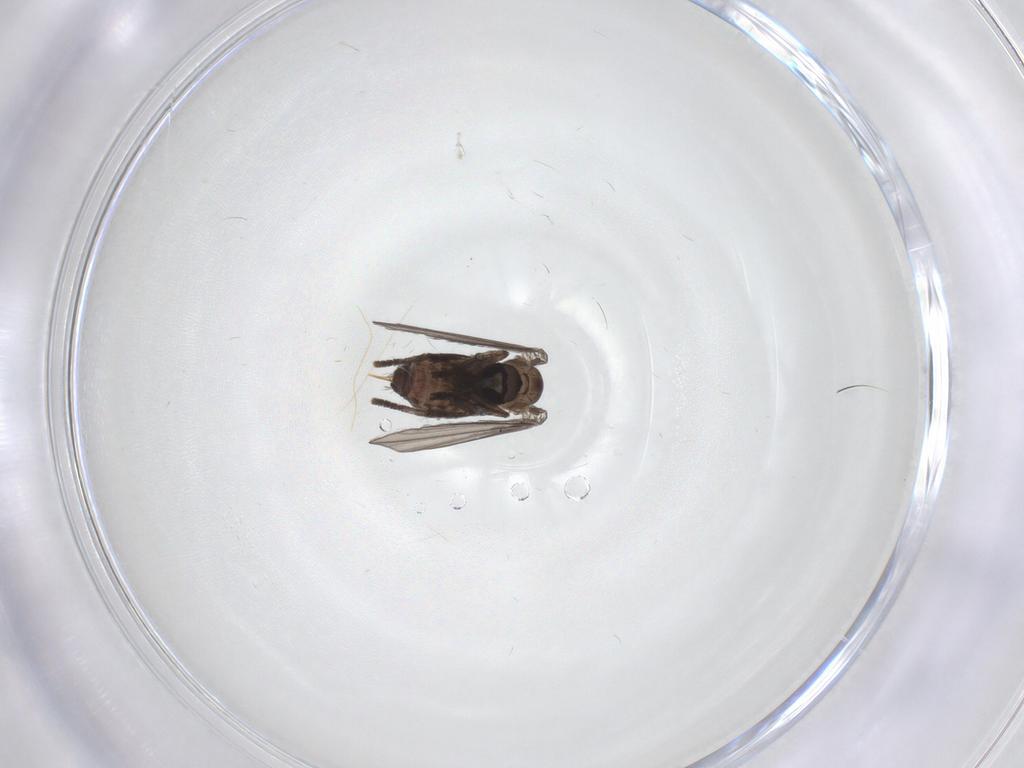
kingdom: Animalia
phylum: Arthropoda
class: Insecta
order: Diptera
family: Psychodidae
